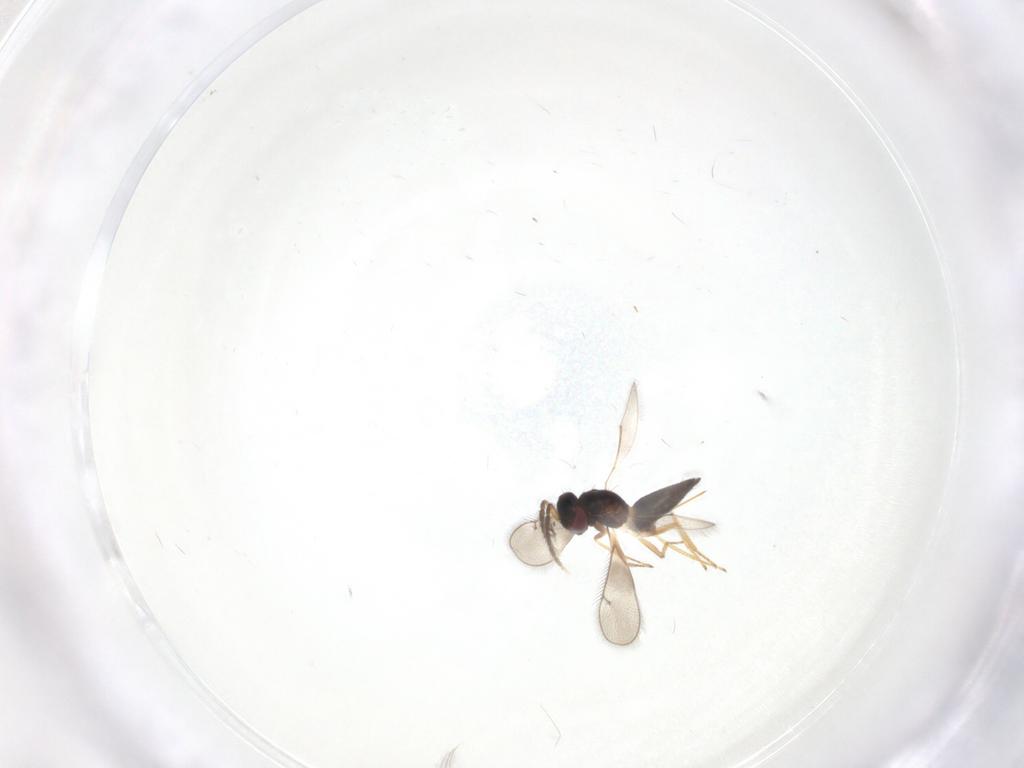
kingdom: Animalia
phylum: Arthropoda
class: Insecta
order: Hymenoptera
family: Eulophidae
